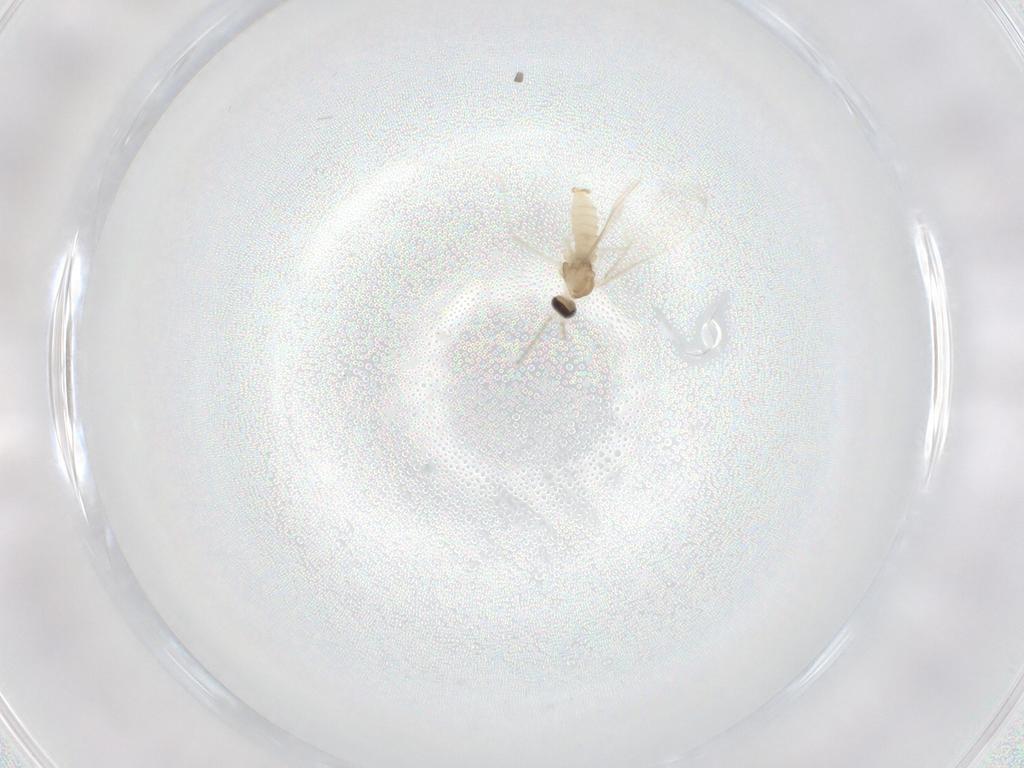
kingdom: Animalia
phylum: Arthropoda
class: Insecta
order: Diptera
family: Cecidomyiidae
